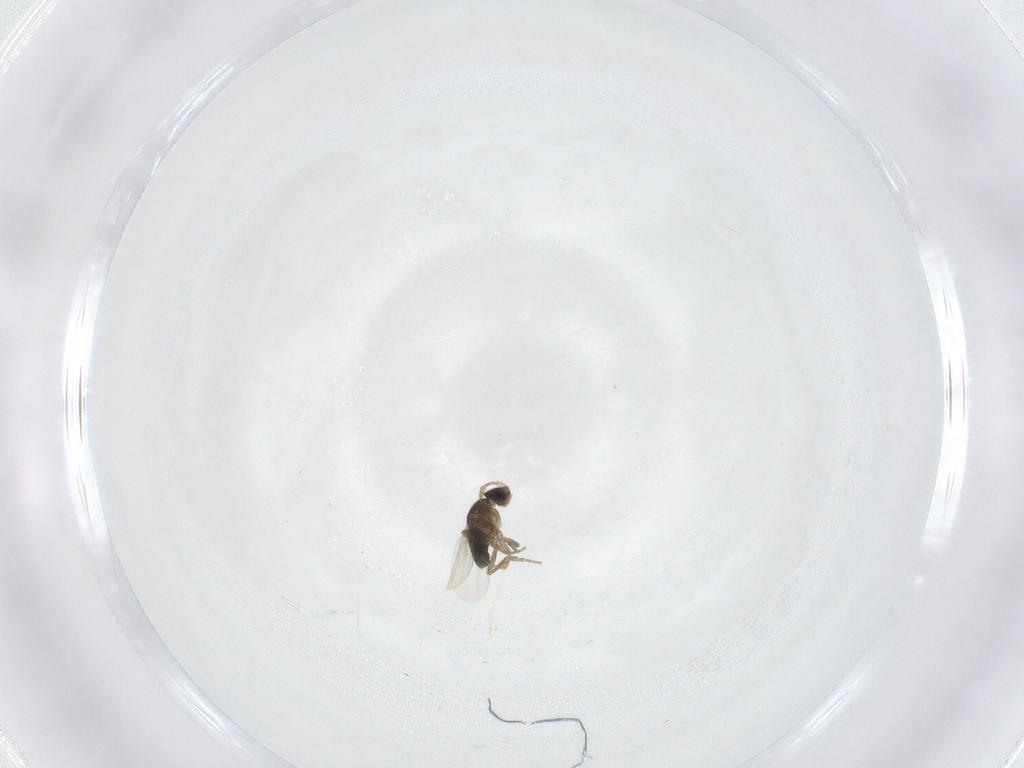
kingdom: Animalia
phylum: Arthropoda
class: Insecta
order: Diptera
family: Phoridae
